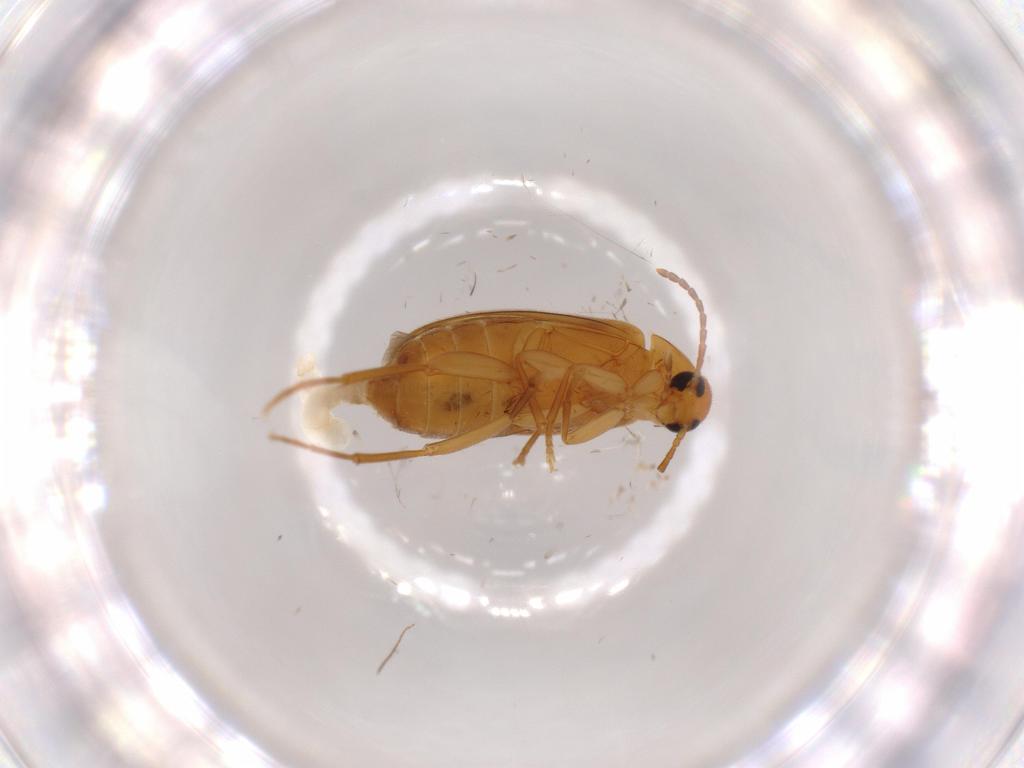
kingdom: Animalia
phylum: Arthropoda
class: Insecta
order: Coleoptera
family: Scraptiidae
